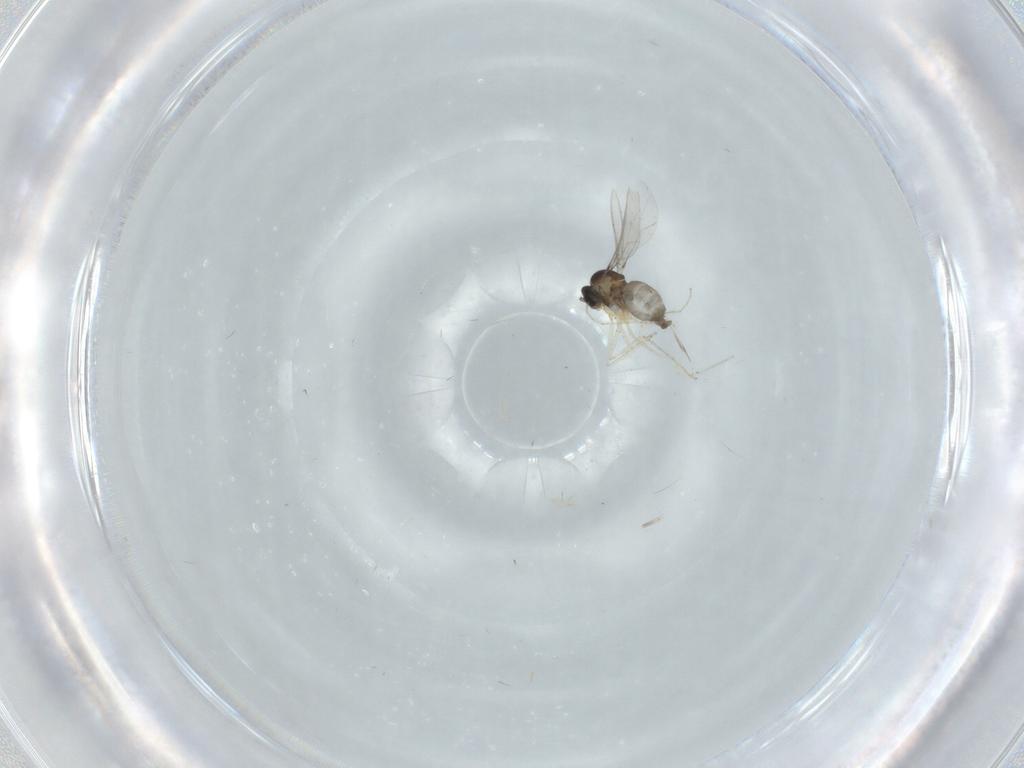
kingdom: Animalia
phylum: Arthropoda
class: Insecta
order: Diptera
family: Cecidomyiidae
